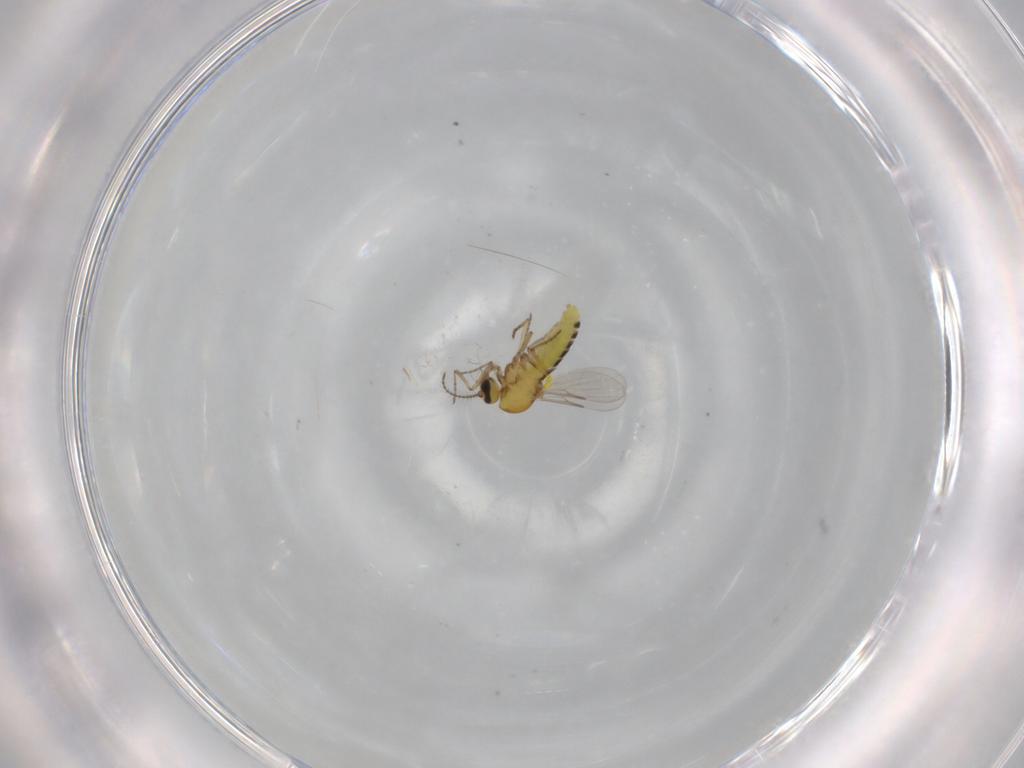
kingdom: Animalia
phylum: Arthropoda
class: Insecta
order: Diptera
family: Ceratopogonidae
